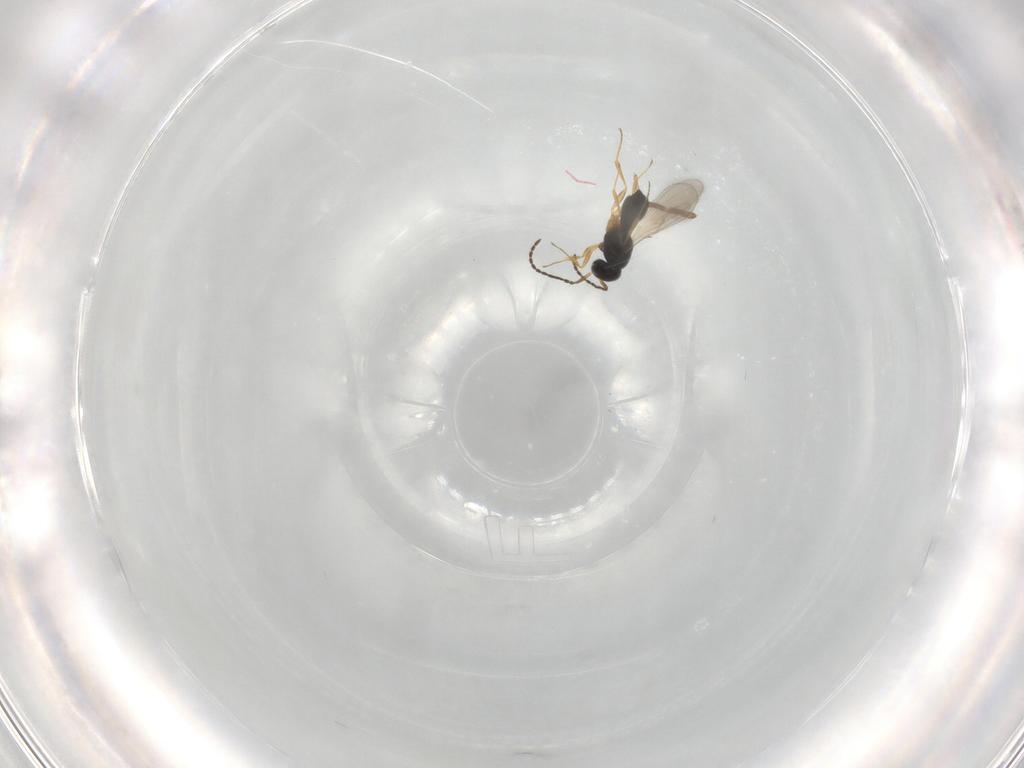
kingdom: Animalia
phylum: Arthropoda
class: Insecta
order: Hymenoptera
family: Scelionidae
